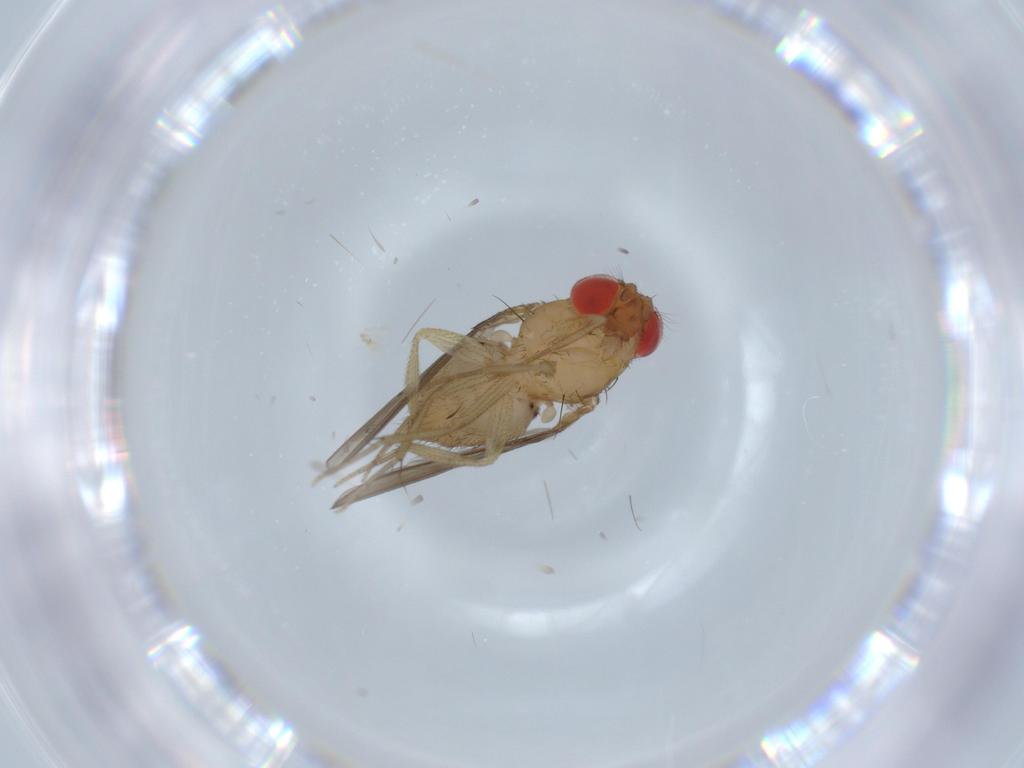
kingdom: Animalia
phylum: Arthropoda
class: Insecta
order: Diptera
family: Drosophilidae
